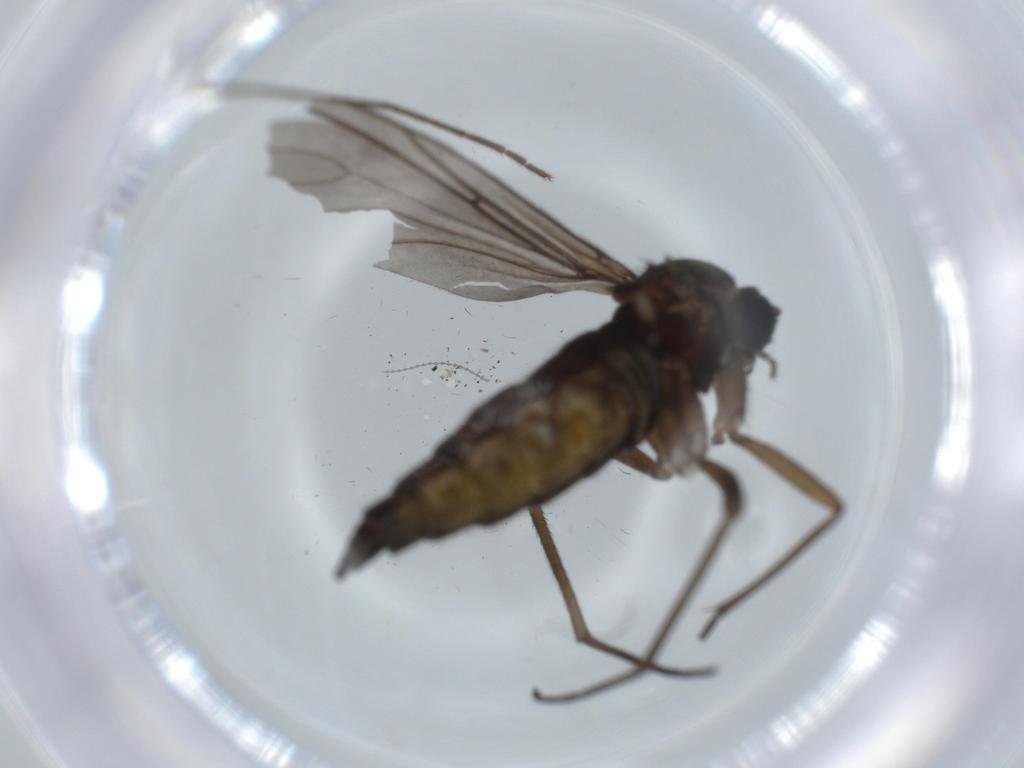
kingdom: Animalia
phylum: Arthropoda
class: Insecta
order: Diptera
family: Sciaridae
